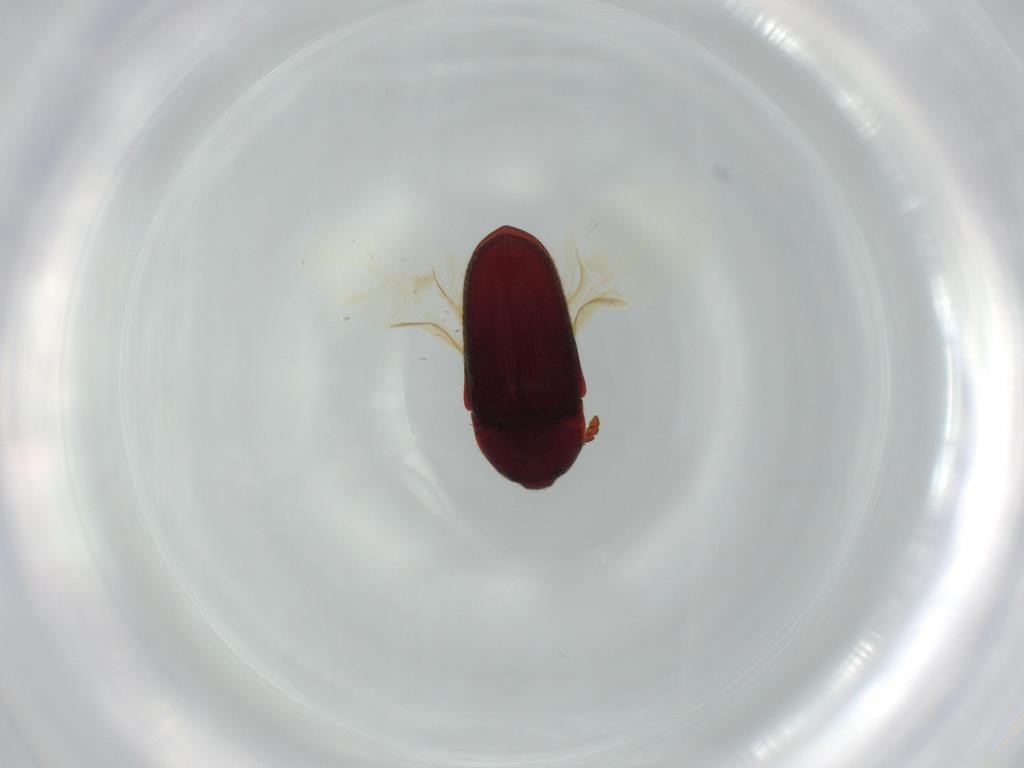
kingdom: Animalia
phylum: Arthropoda
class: Insecta
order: Coleoptera
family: Throscidae
